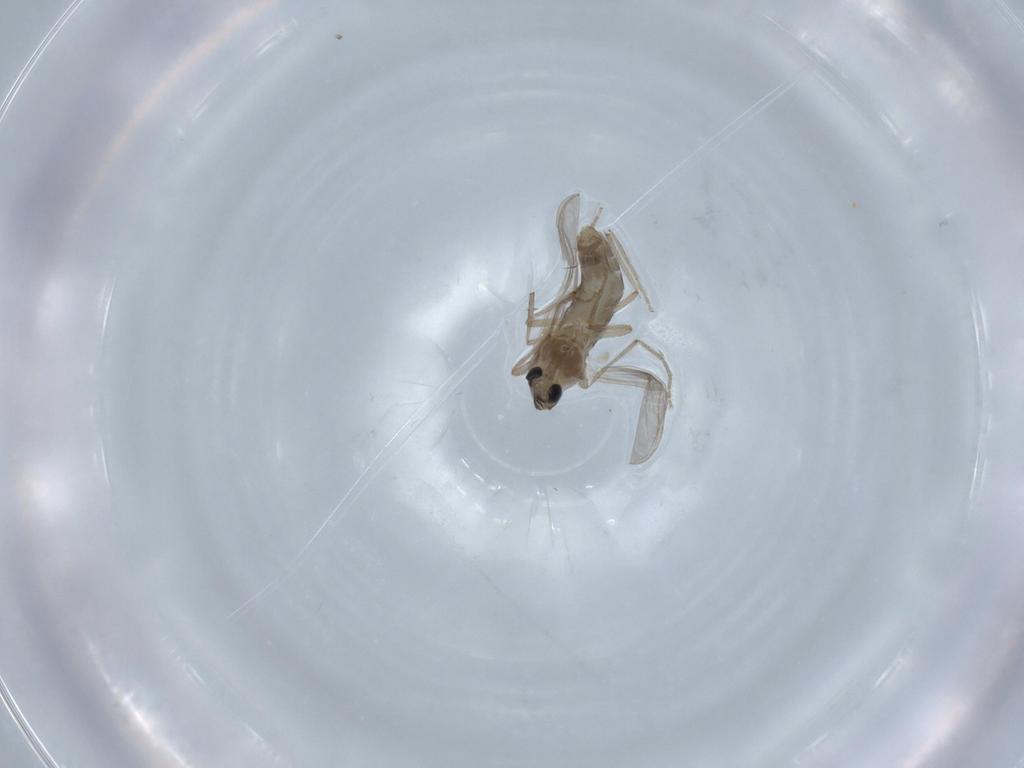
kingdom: Animalia
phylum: Arthropoda
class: Insecta
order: Diptera
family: Chironomidae
